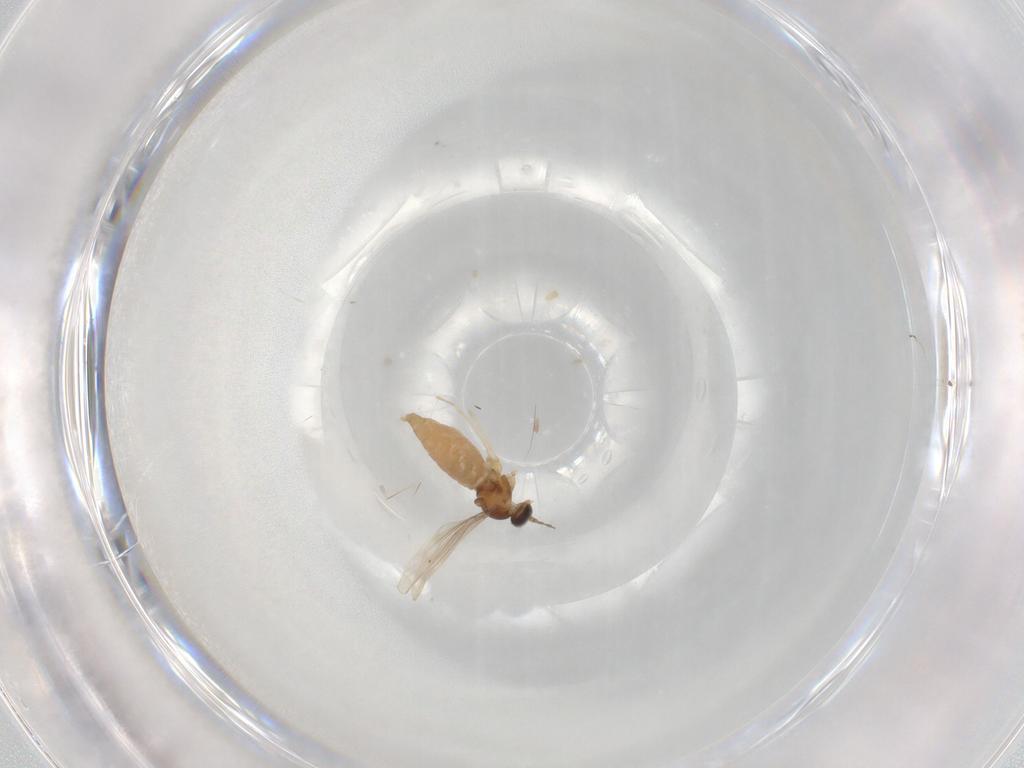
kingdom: Animalia
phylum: Arthropoda
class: Insecta
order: Diptera
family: Cecidomyiidae
